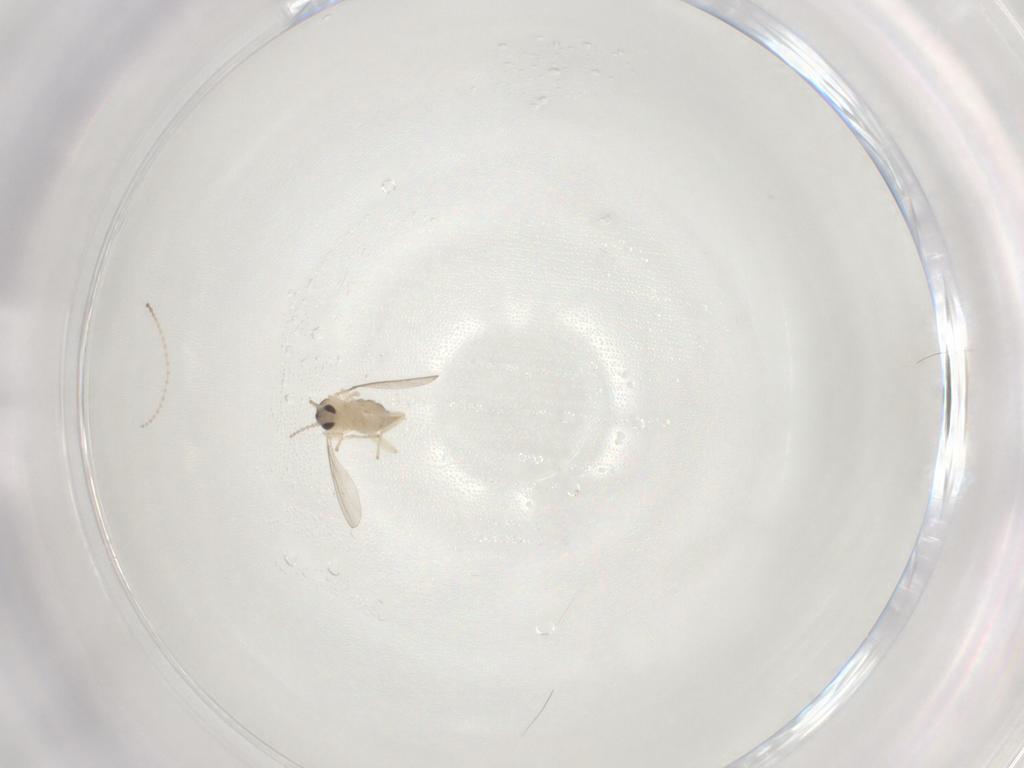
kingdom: Animalia
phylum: Arthropoda
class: Insecta
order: Diptera
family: Cecidomyiidae
